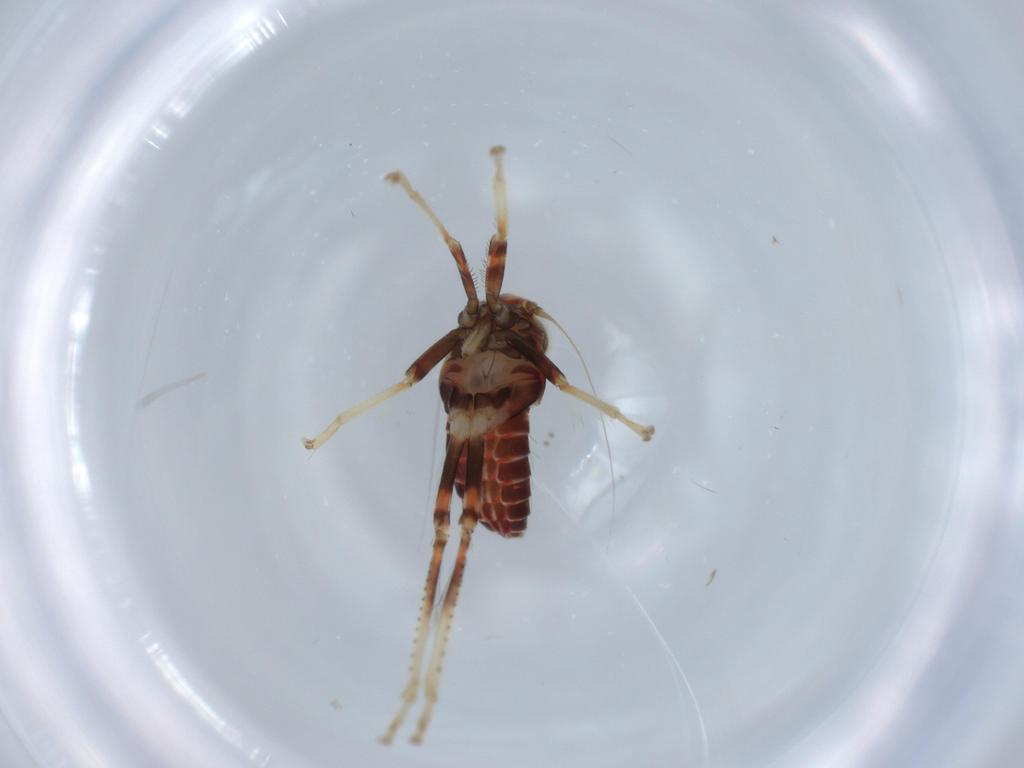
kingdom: Animalia
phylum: Arthropoda
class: Insecta
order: Hemiptera
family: Cicadellidae
